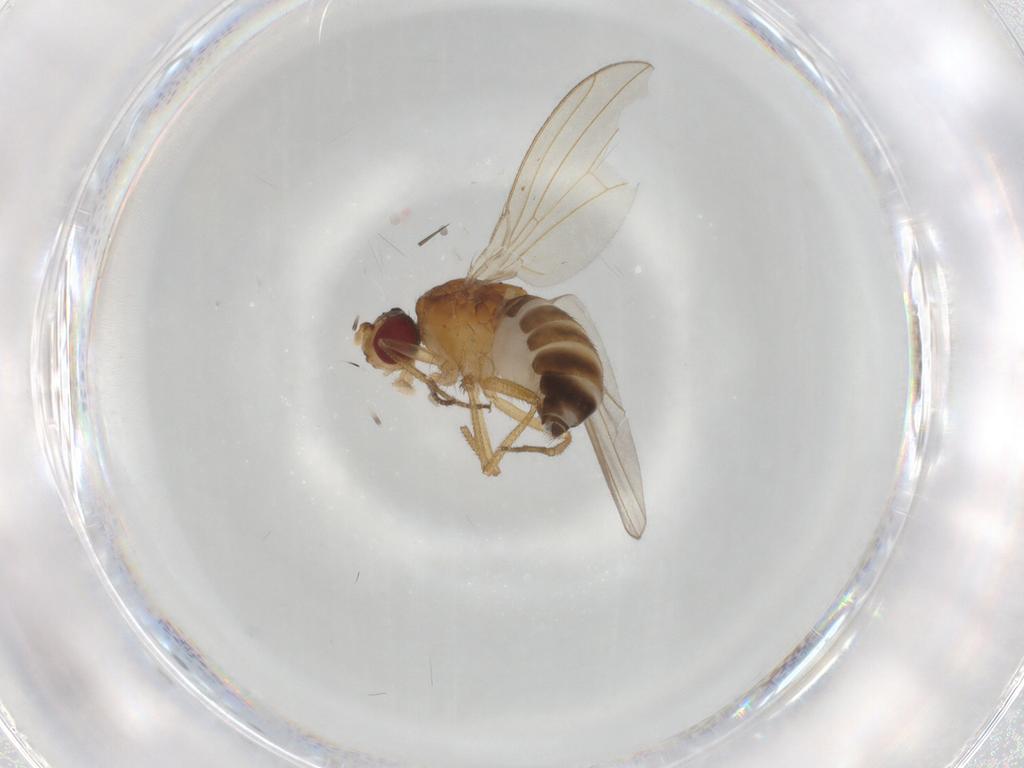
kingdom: Animalia
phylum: Arthropoda
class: Insecta
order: Diptera
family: Drosophilidae
